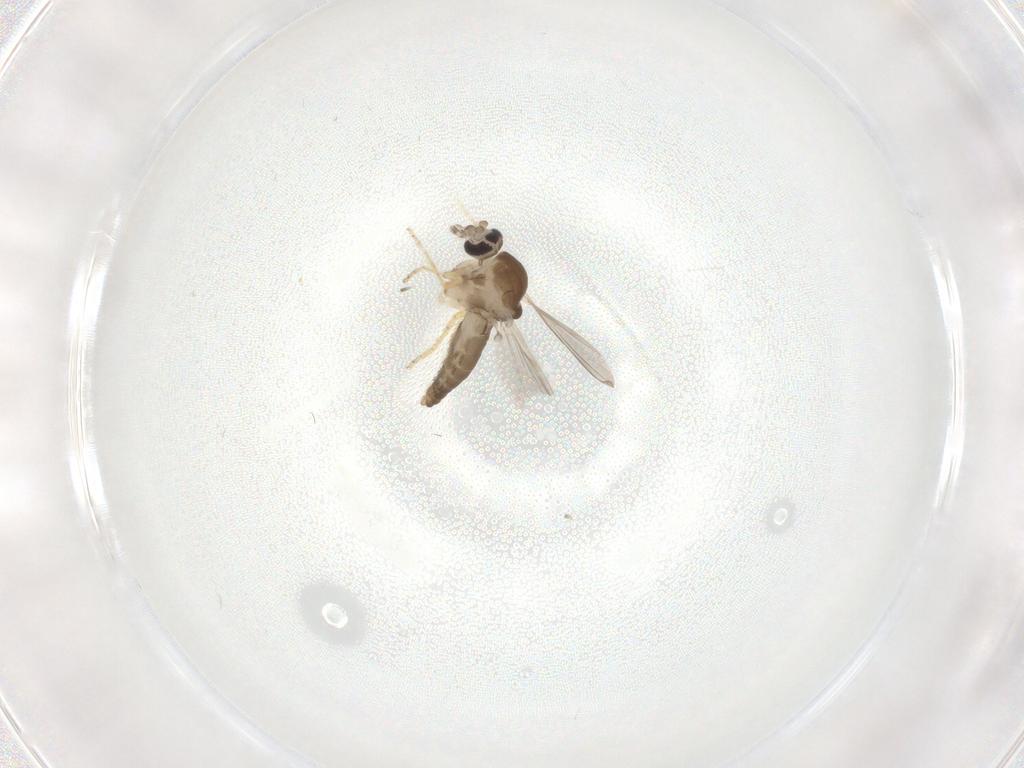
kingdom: Animalia
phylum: Arthropoda
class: Insecta
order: Diptera
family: Ceratopogonidae
